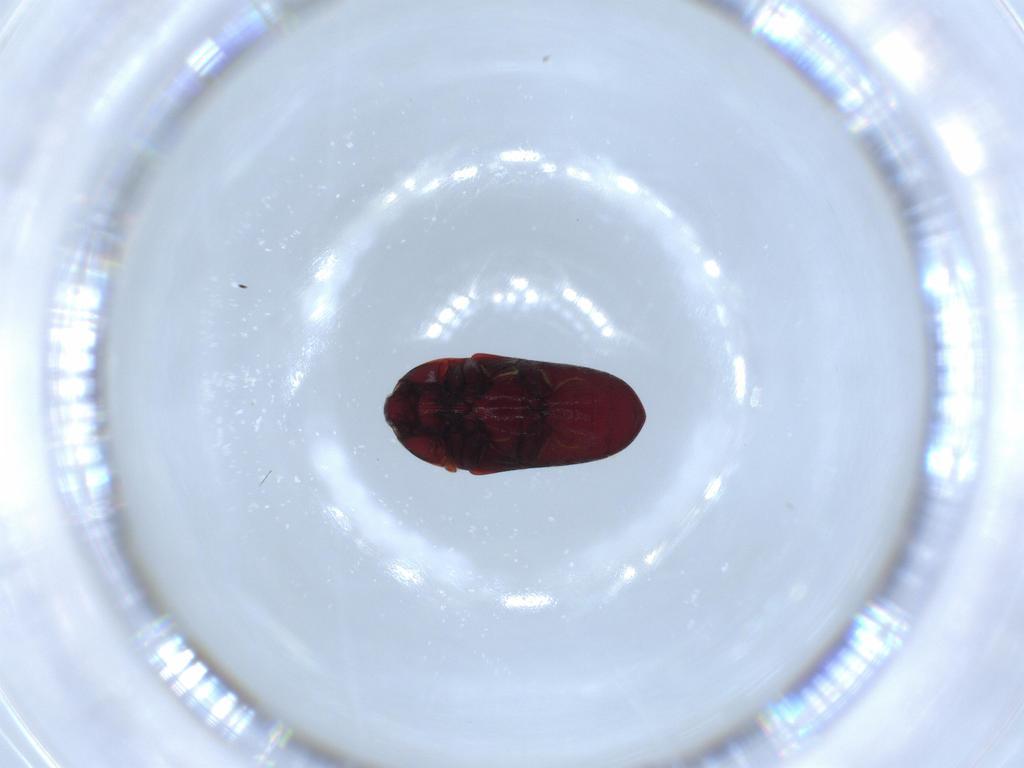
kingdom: Animalia
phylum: Arthropoda
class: Insecta
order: Coleoptera
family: Throscidae
